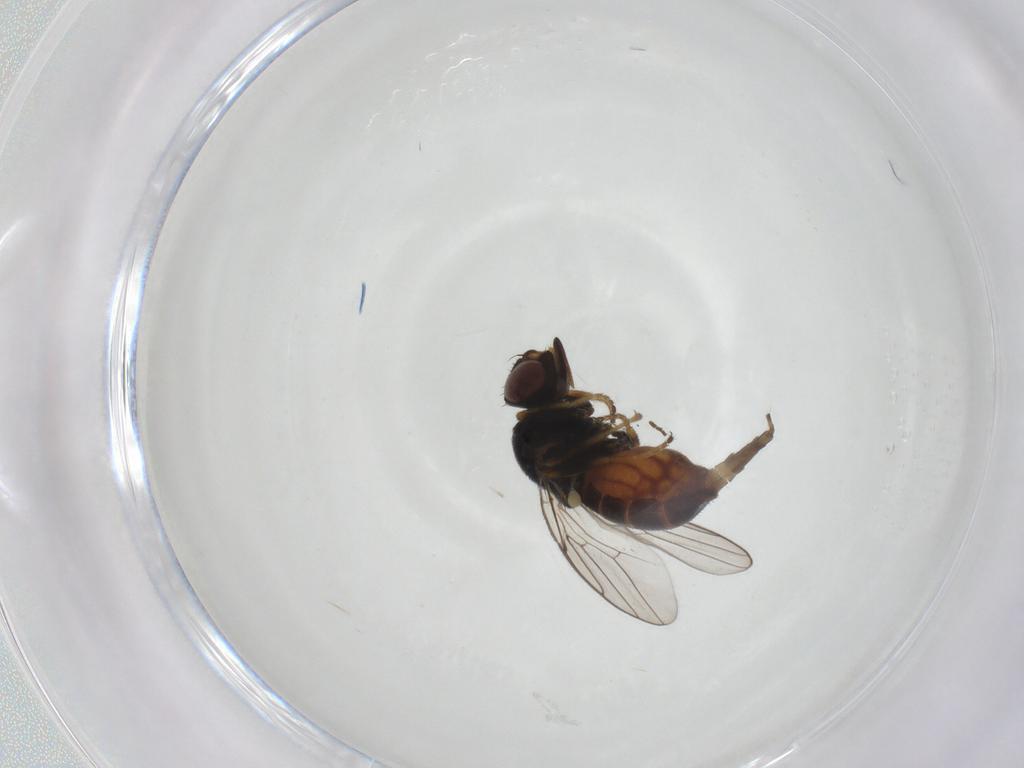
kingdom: Animalia
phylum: Arthropoda
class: Insecta
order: Diptera
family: Chloropidae
